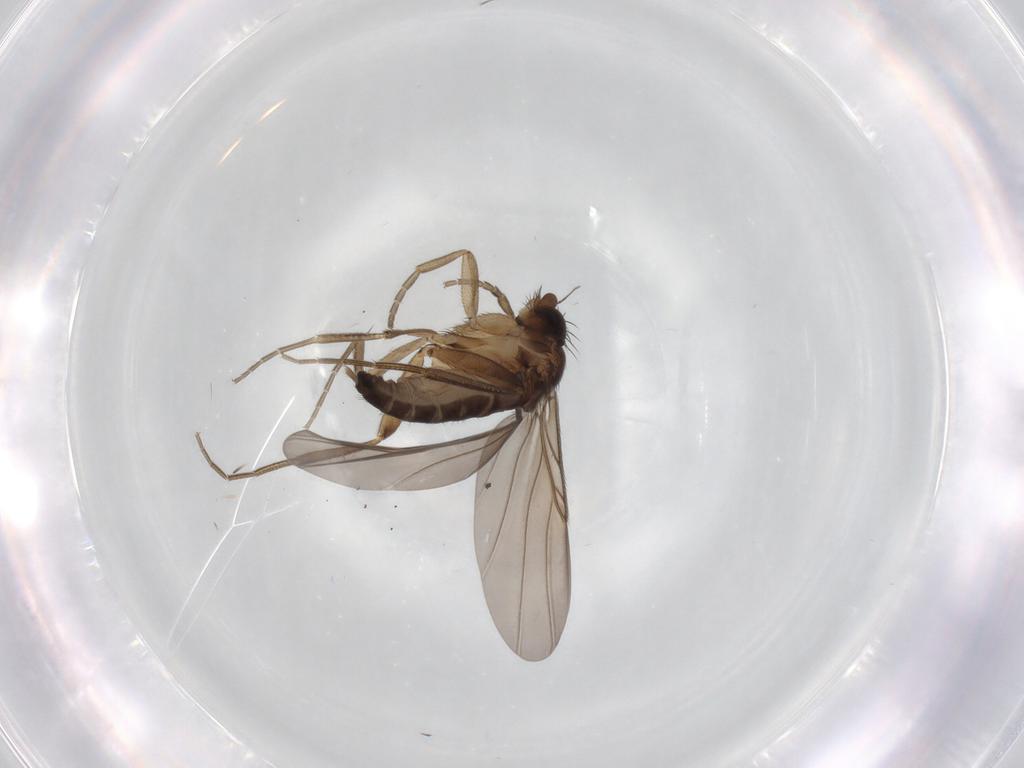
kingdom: Animalia
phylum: Arthropoda
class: Insecta
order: Diptera
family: Phoridae
